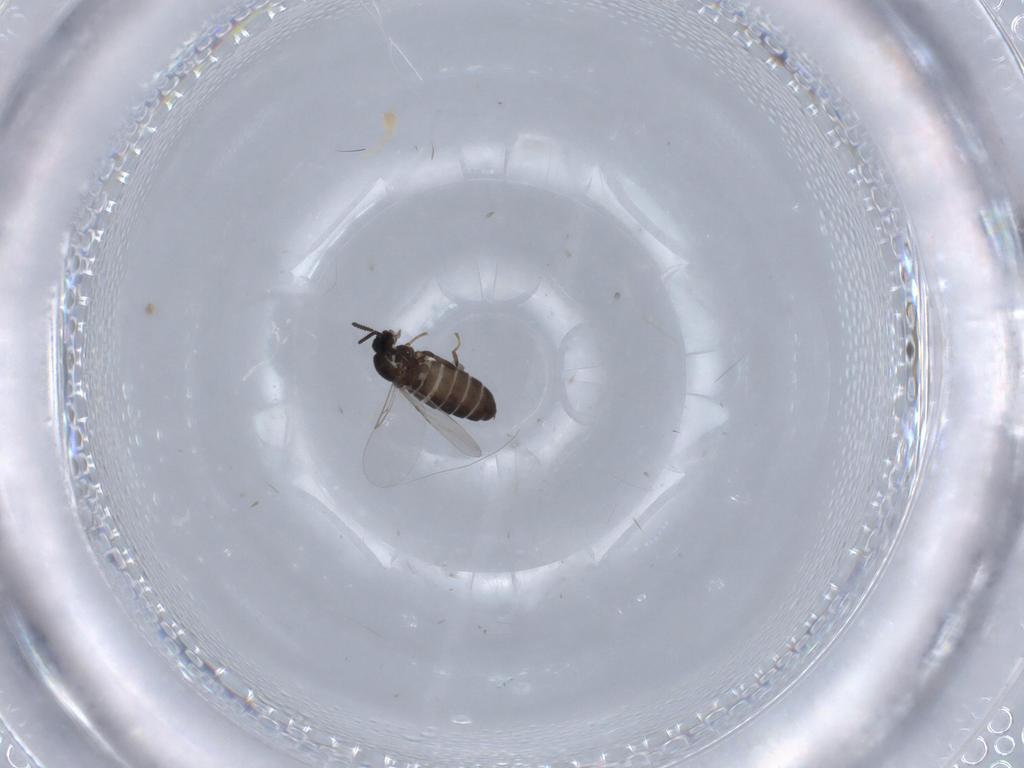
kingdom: Animalia
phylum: Arthropoda
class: Insecta
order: Diptera
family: Scatopsidae
